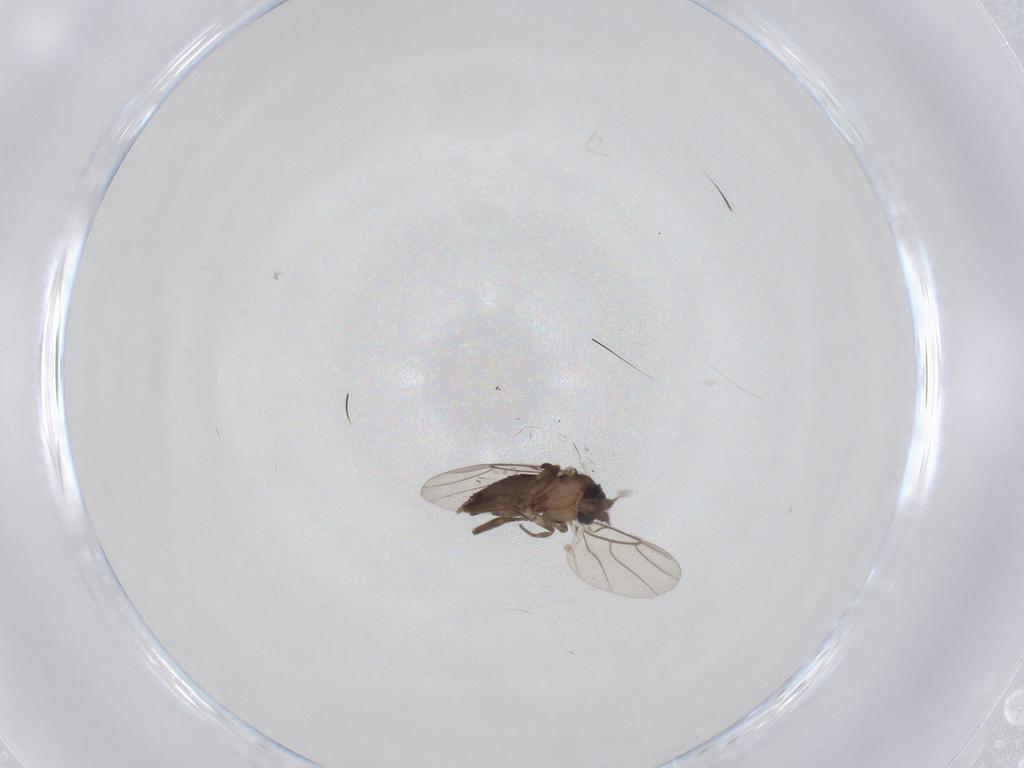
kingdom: Animalia
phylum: Arthropoda
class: Insecta
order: Diptera
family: Phoridae
